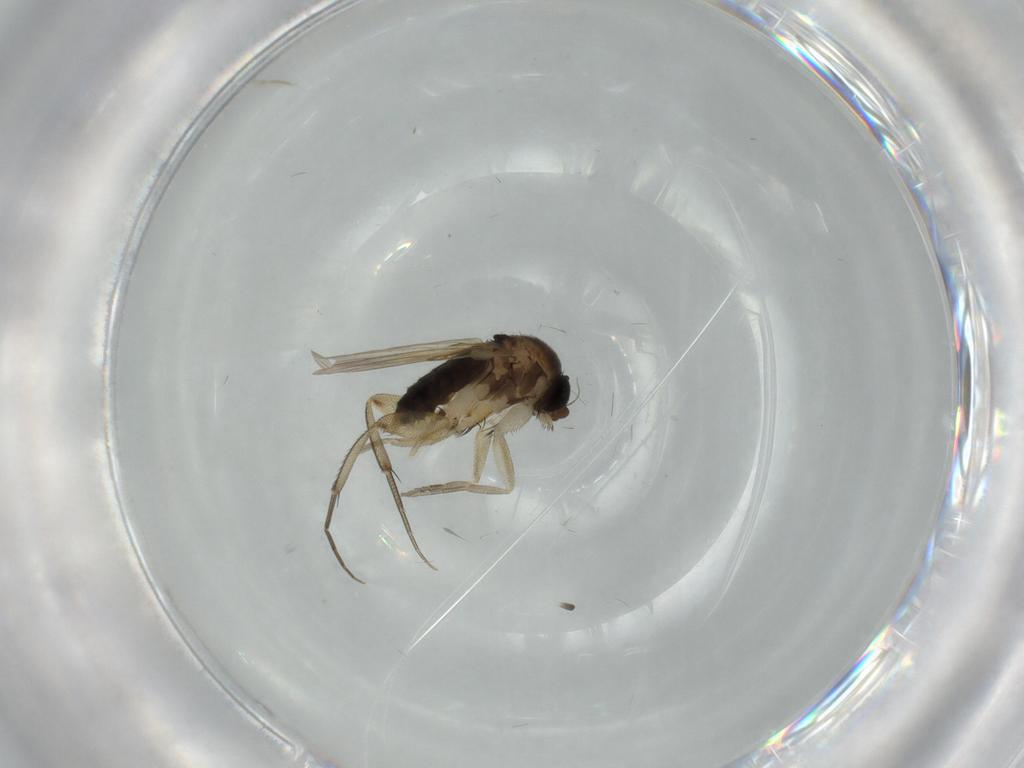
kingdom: Animalia
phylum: Arthropoda
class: Insecta
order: Diptera
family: Phoridae
